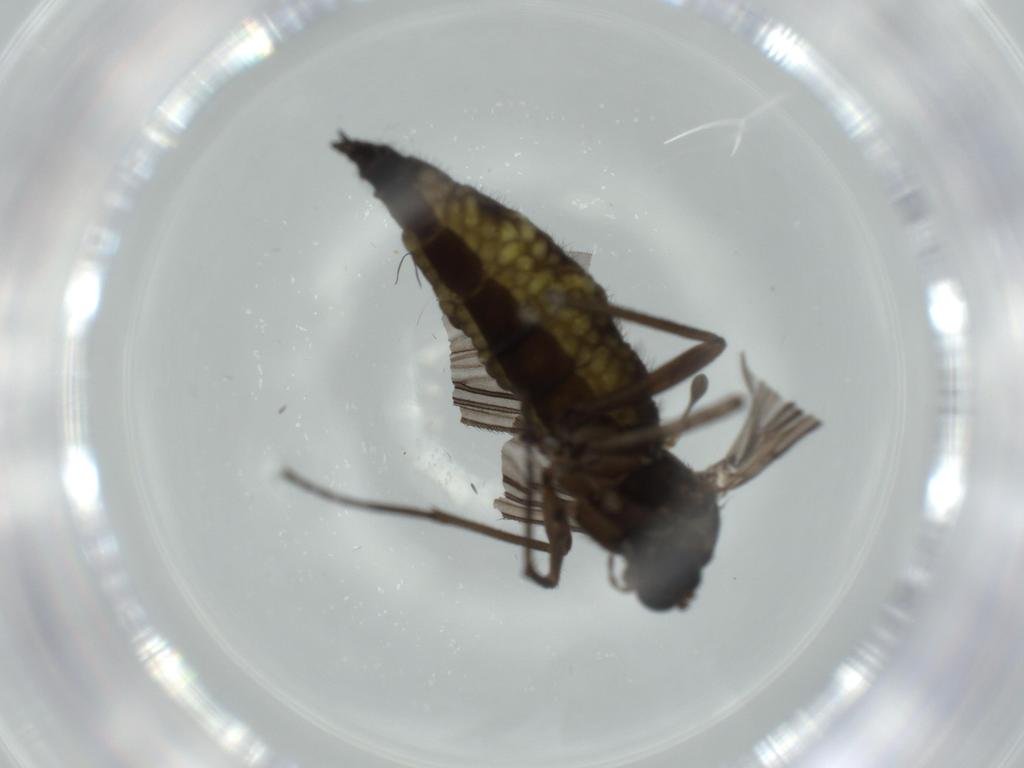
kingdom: Animalia
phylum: Arthropoda
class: Insecta
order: Diptera
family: Sciaridae
